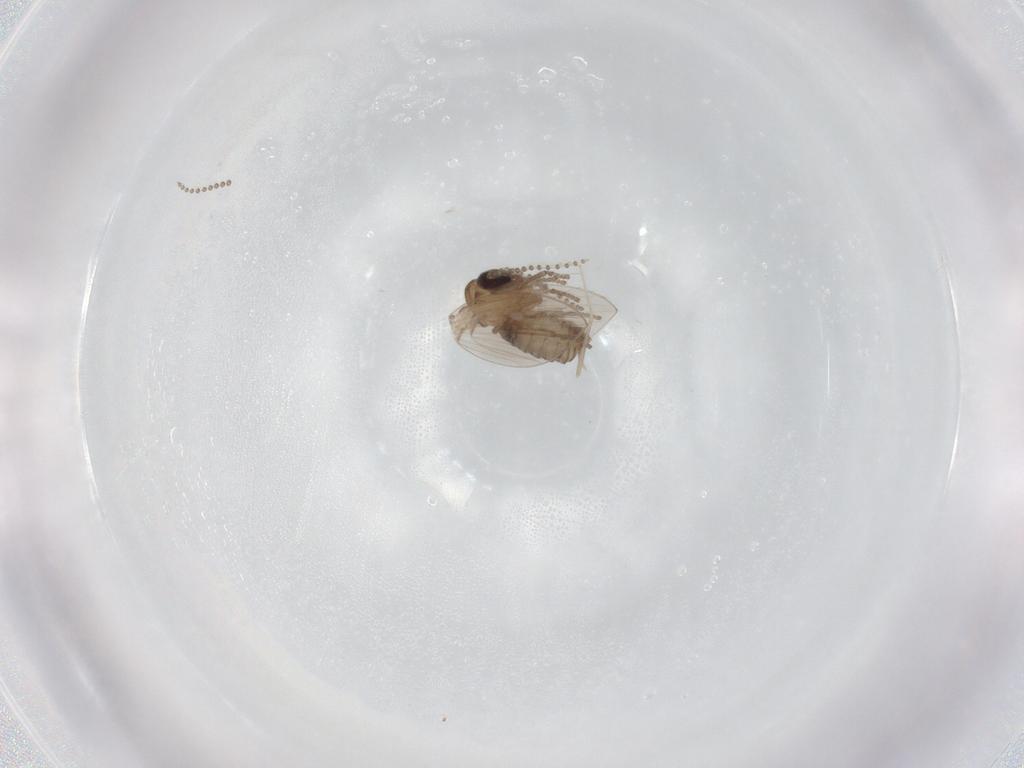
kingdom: Animalia
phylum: Arthropoda
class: Insecta
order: Diptera
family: Psychodidae
